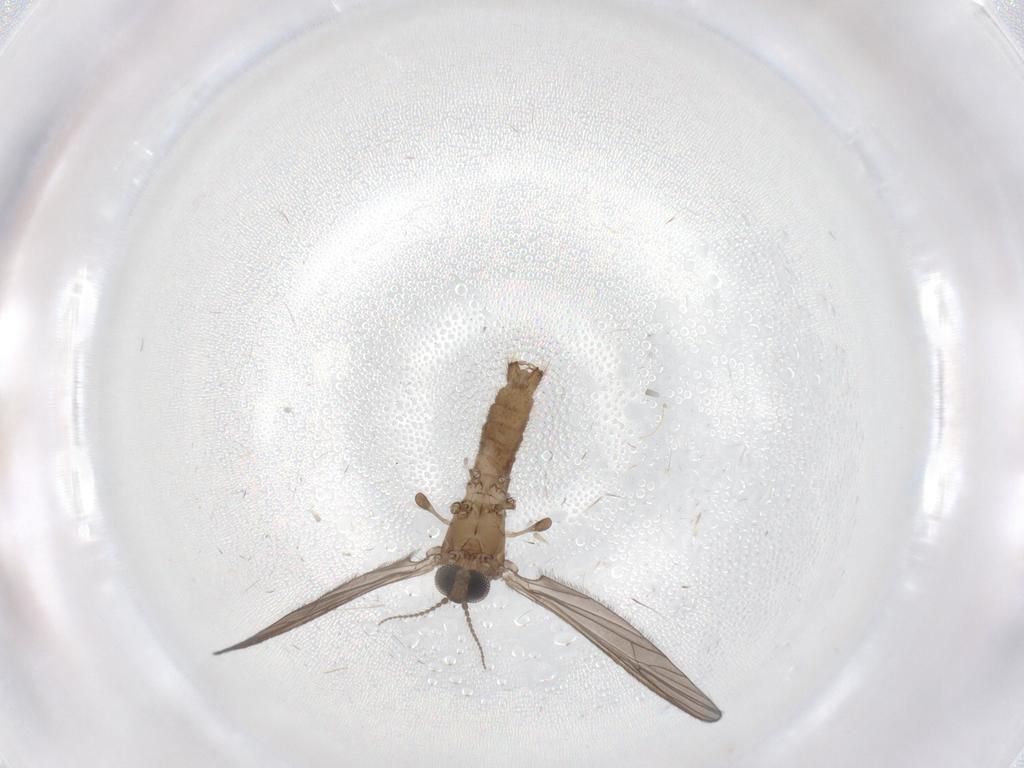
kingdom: Animalia
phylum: Arthropoda
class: Insecta
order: Diptera
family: Limoniidae
